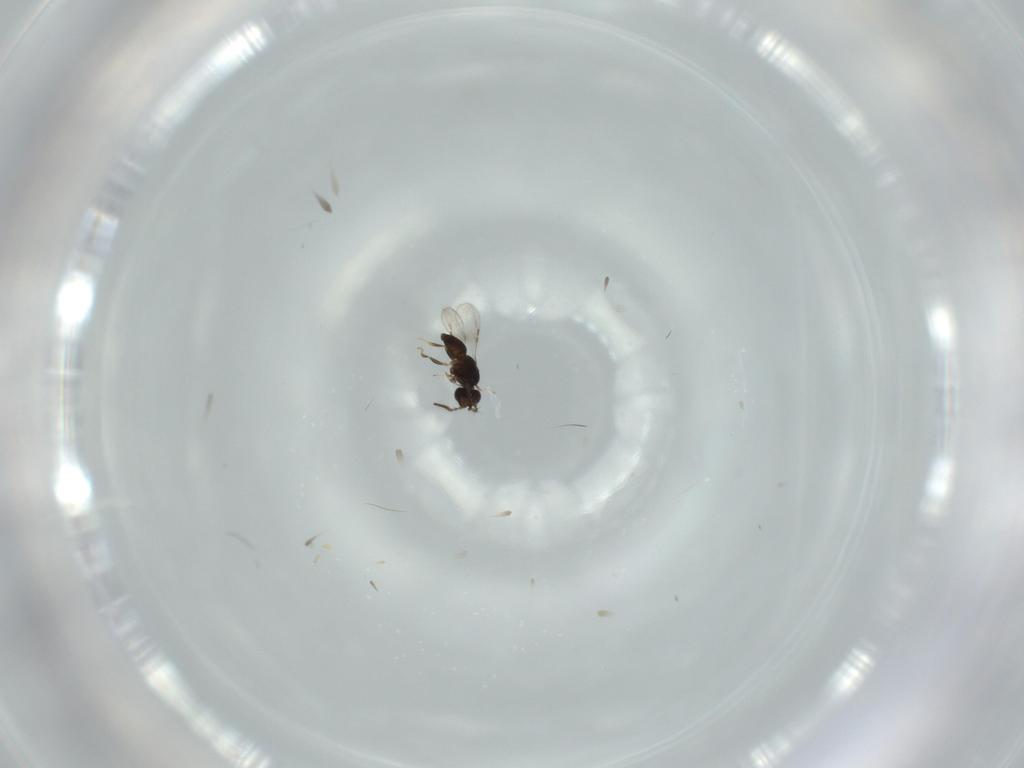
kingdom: Animalia
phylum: Arthropoda
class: Insecta
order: Hymenoptera
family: Formicidae
